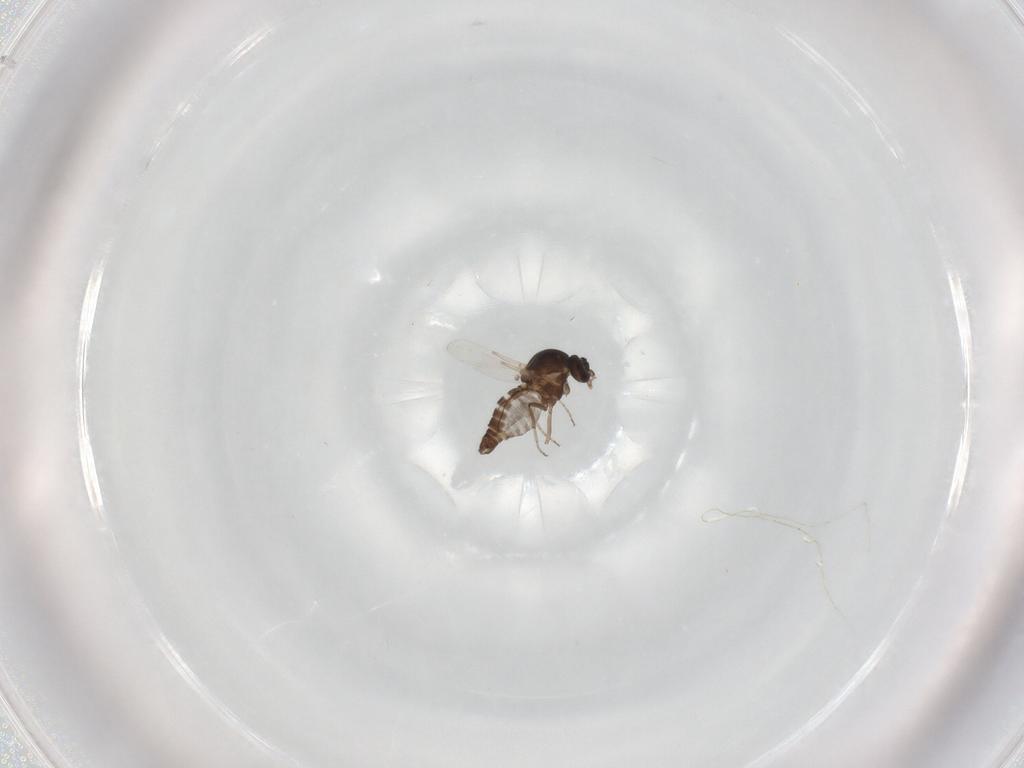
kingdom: Animalia
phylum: Arthropoda
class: Insecta
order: Diptera
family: Ceratopogonidae
